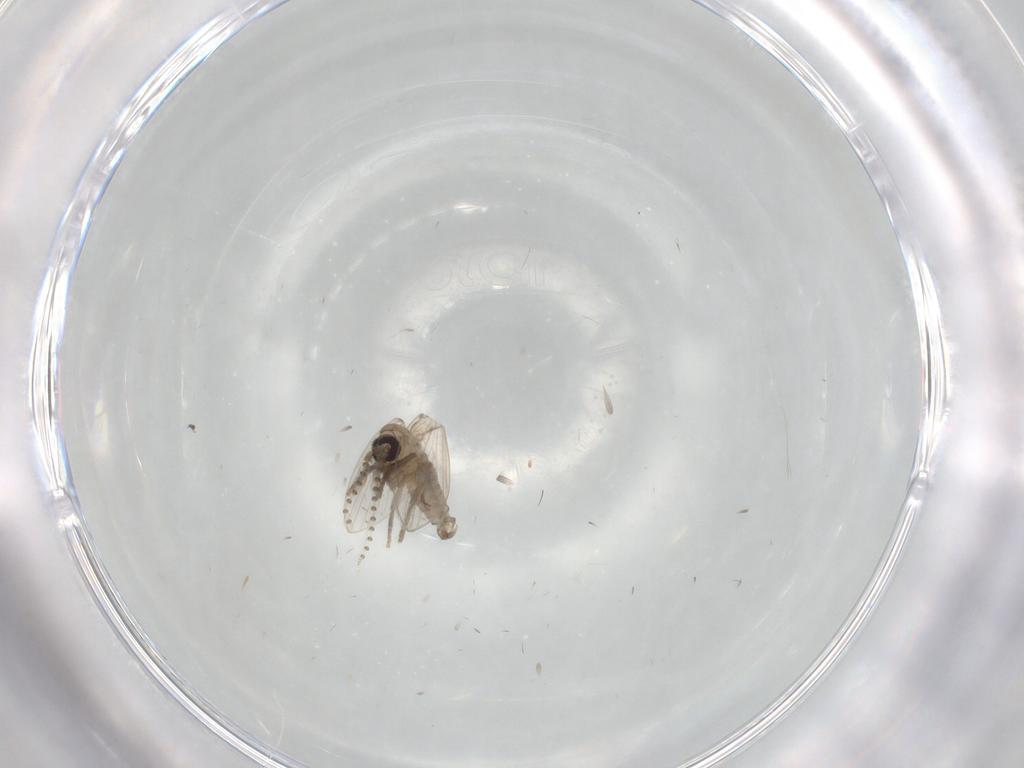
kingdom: Animalia
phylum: Arthropoda
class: Insecta
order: Diptera
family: Psychodidae
